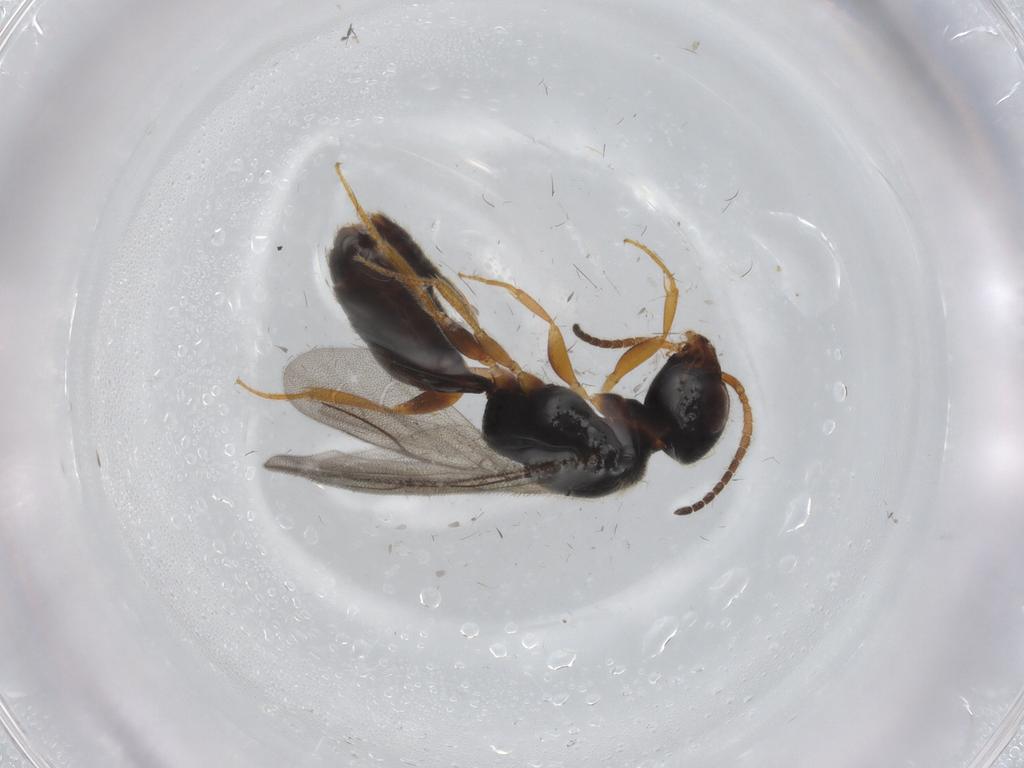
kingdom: Animalia
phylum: Arthropoda
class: Insecta
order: Hymenoptera
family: Bethylidae
